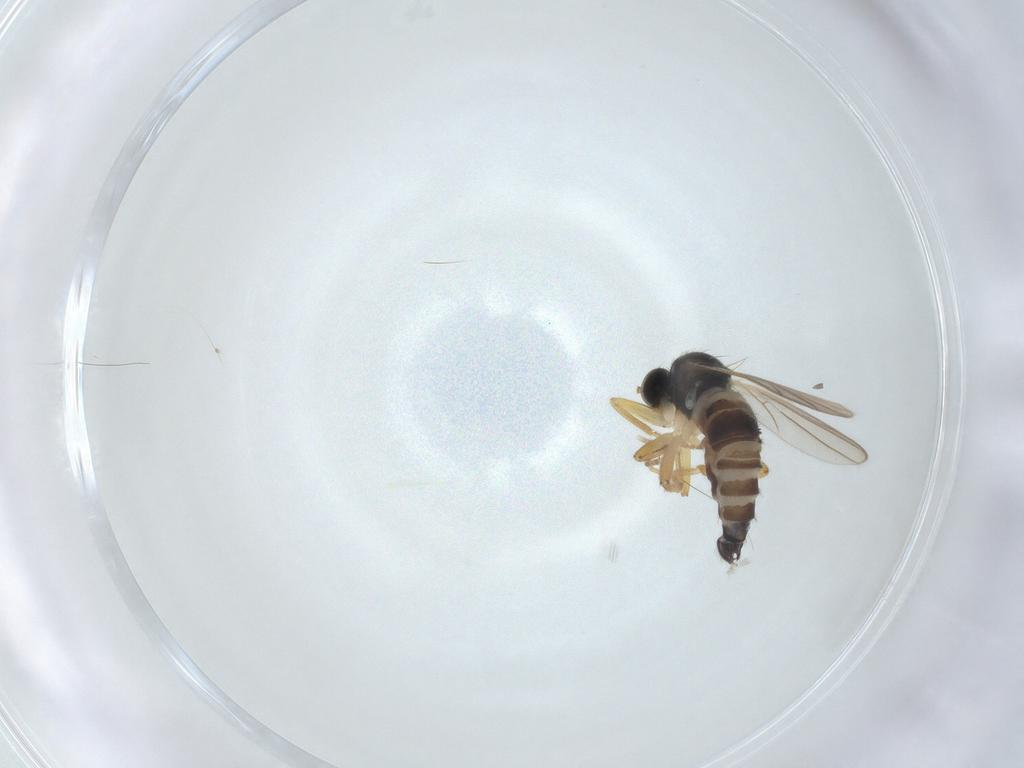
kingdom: Animalia
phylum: Arthropoda
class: Insecta
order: Diptera
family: Hybotidae
